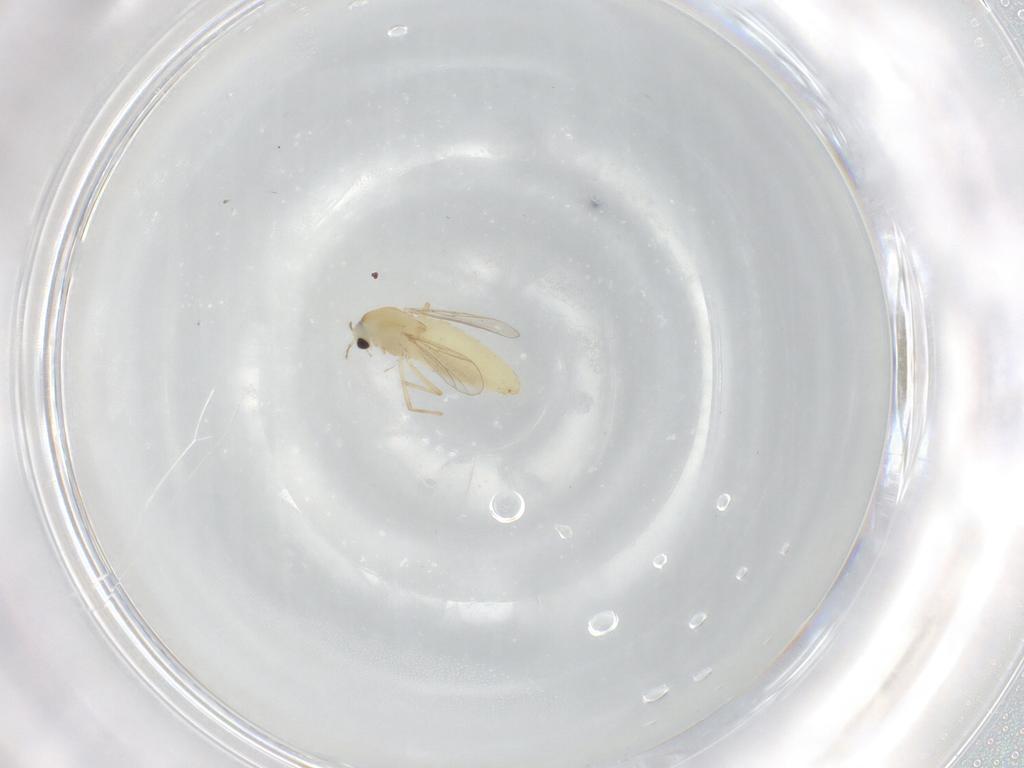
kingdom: Animalia
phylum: Arthropoda
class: Insecta
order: Diptera
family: Chironomidae
